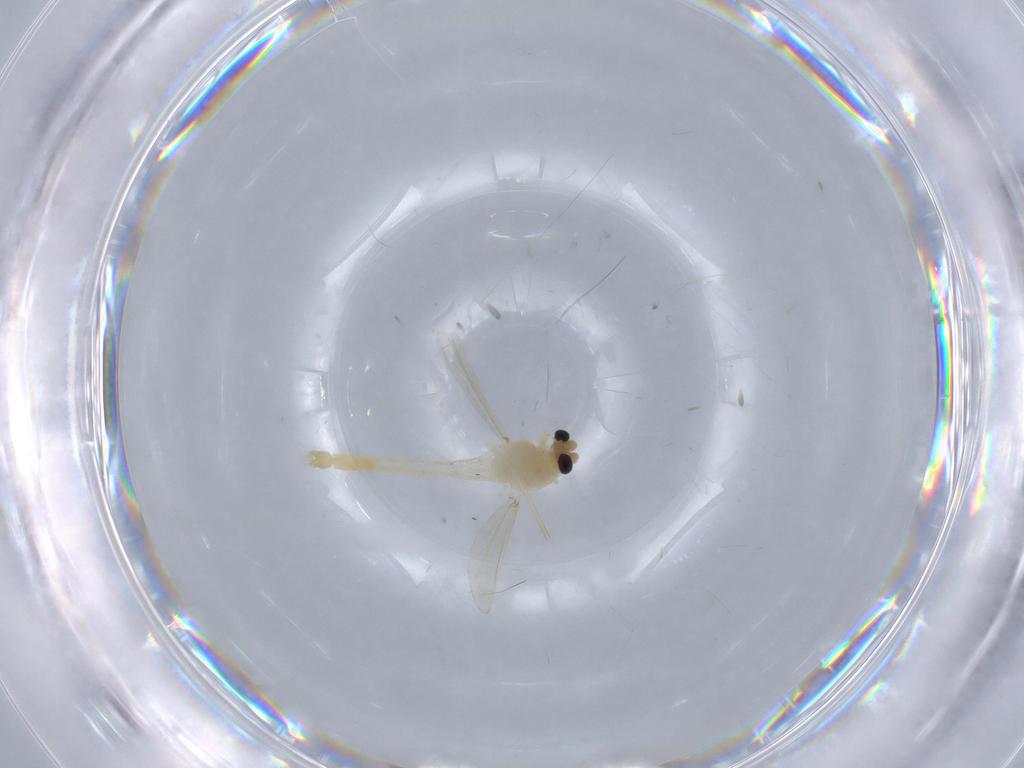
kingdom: Animalia
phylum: Arthropoda
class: Insecta
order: Diptera
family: Chironomidae
